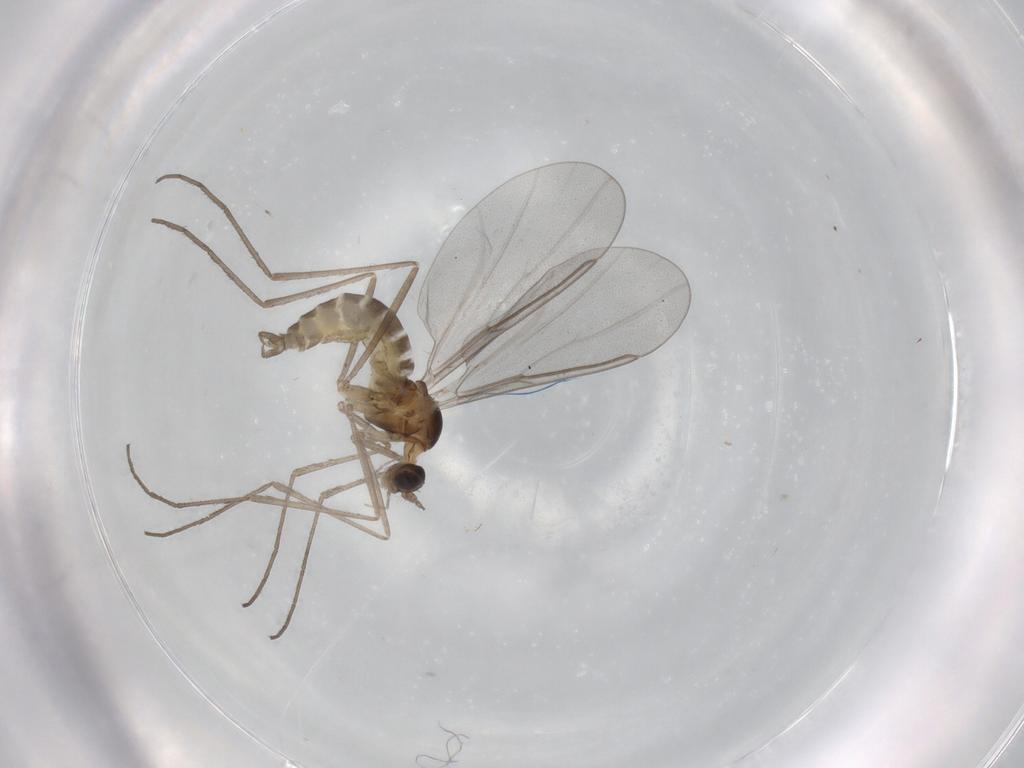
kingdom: Animalia
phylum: Arthropoda
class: Insecta
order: Diptera
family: Cecidomyiidae
